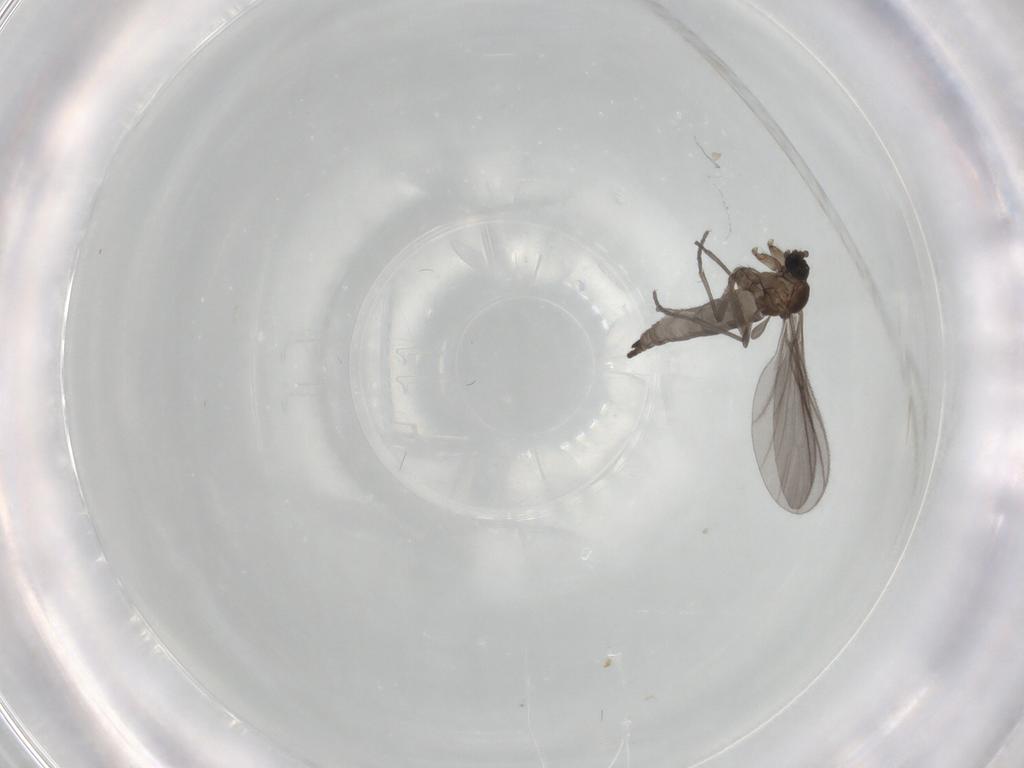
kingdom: Animalia
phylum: Arthropoda
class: Insecta
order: Diptera
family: Sciaridae
